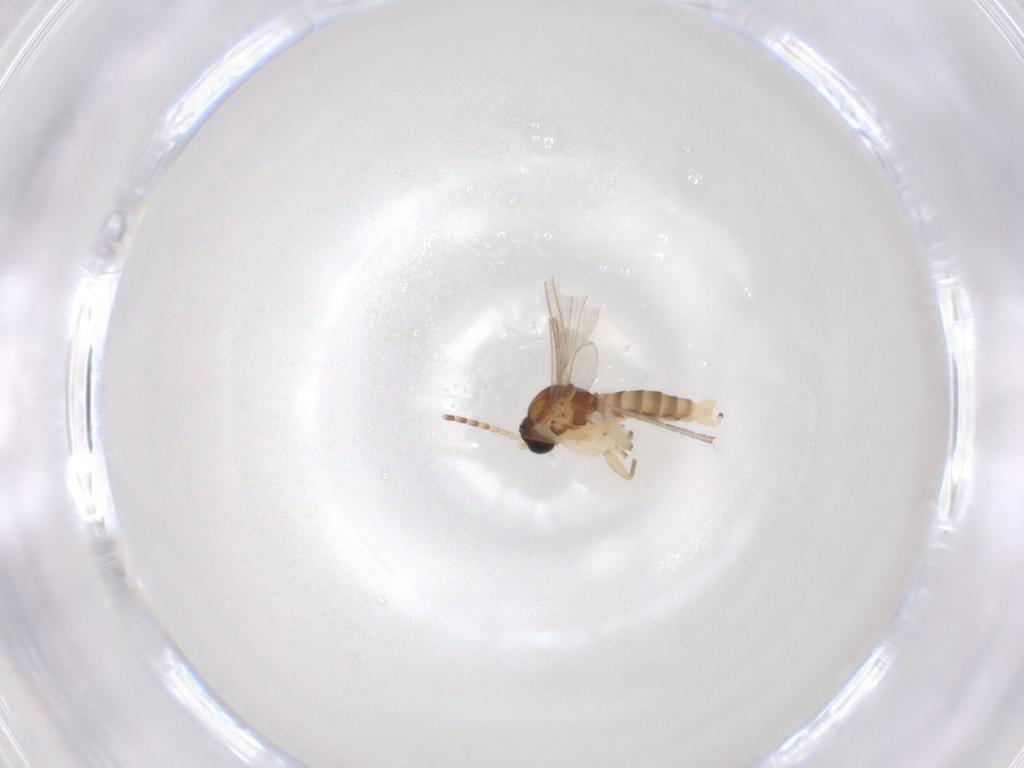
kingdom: Animalia
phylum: Arthropoda
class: Insecta
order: Diptera
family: Sciaridae
